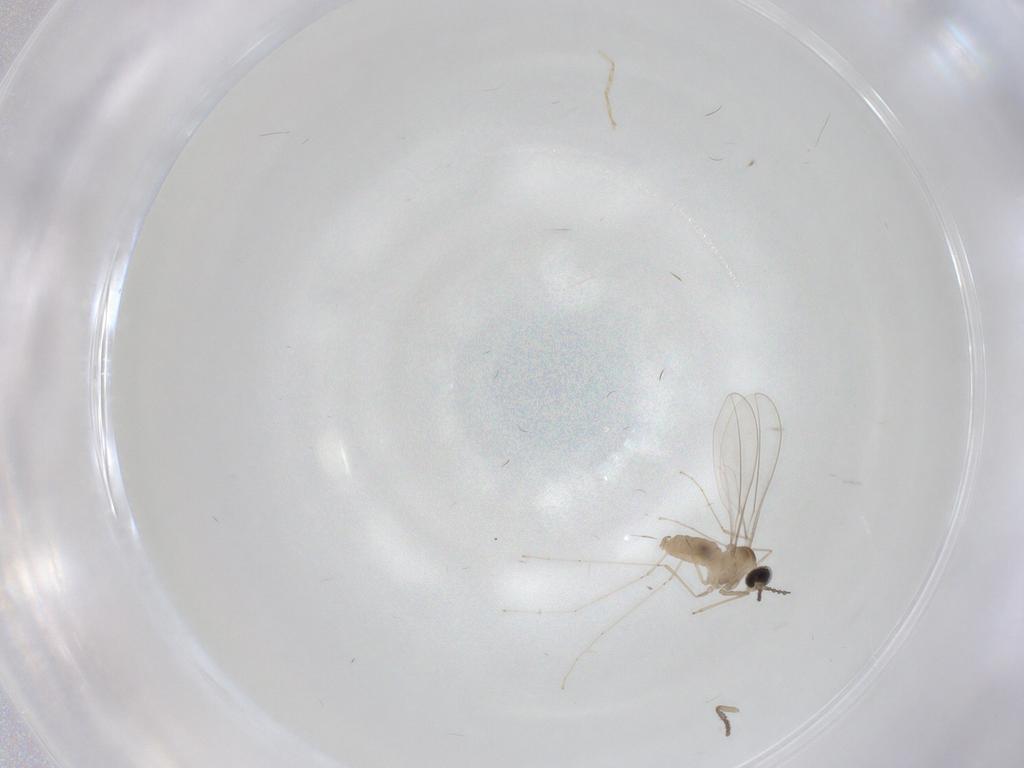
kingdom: Animalia
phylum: Arthropoda
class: Insecta
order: Diptera
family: Cecidomyiidae
